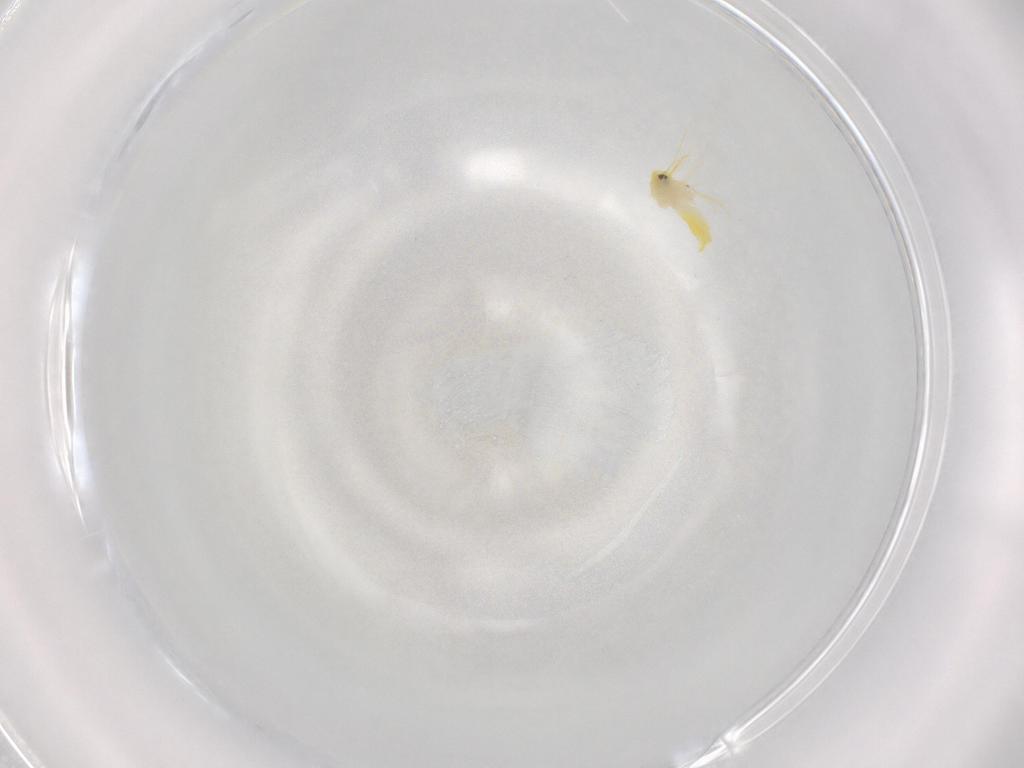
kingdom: Animalia
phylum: Arthropoda
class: Insecta
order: Hemiptera
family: Aleyrodidae
